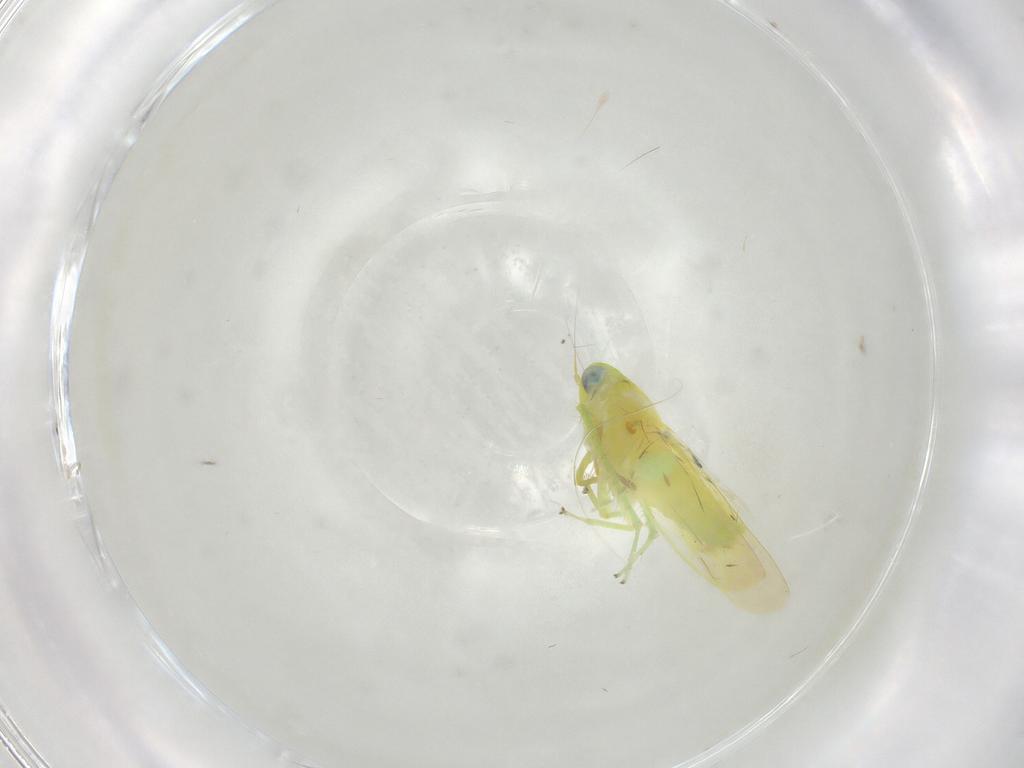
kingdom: Animalia
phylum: Arthropoda
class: Insecta
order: Hemiptera
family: Cicadellidae
